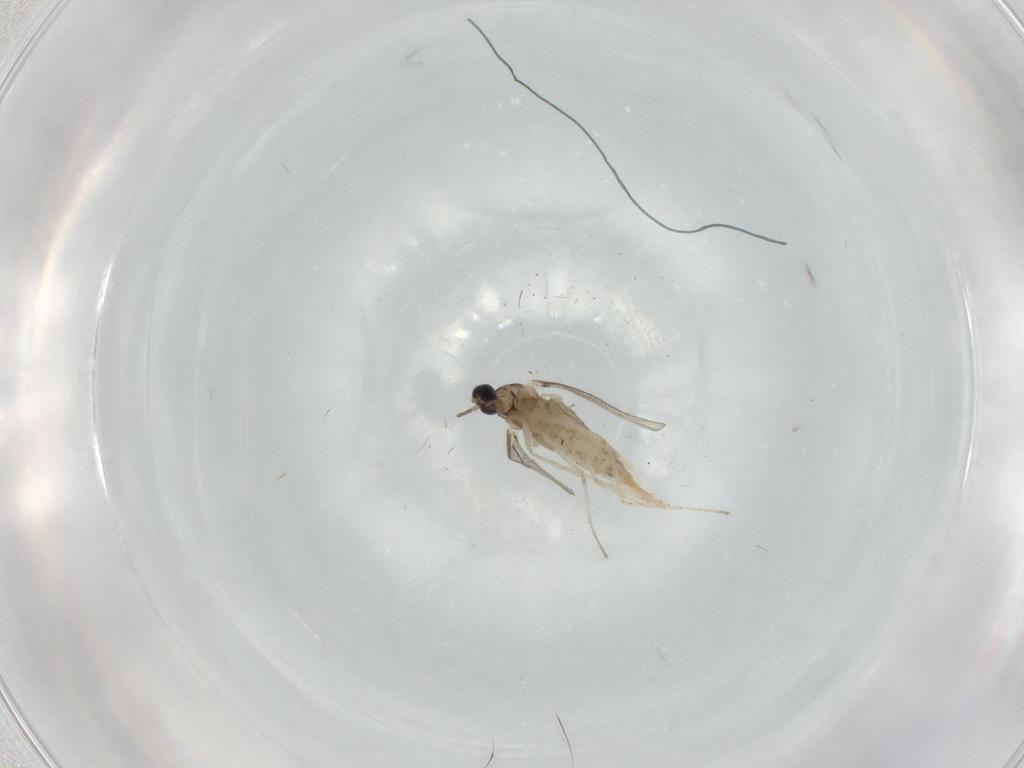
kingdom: Animalia
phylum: Arthropoda
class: Insecta
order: Diptera
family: Cecidomyiidae
